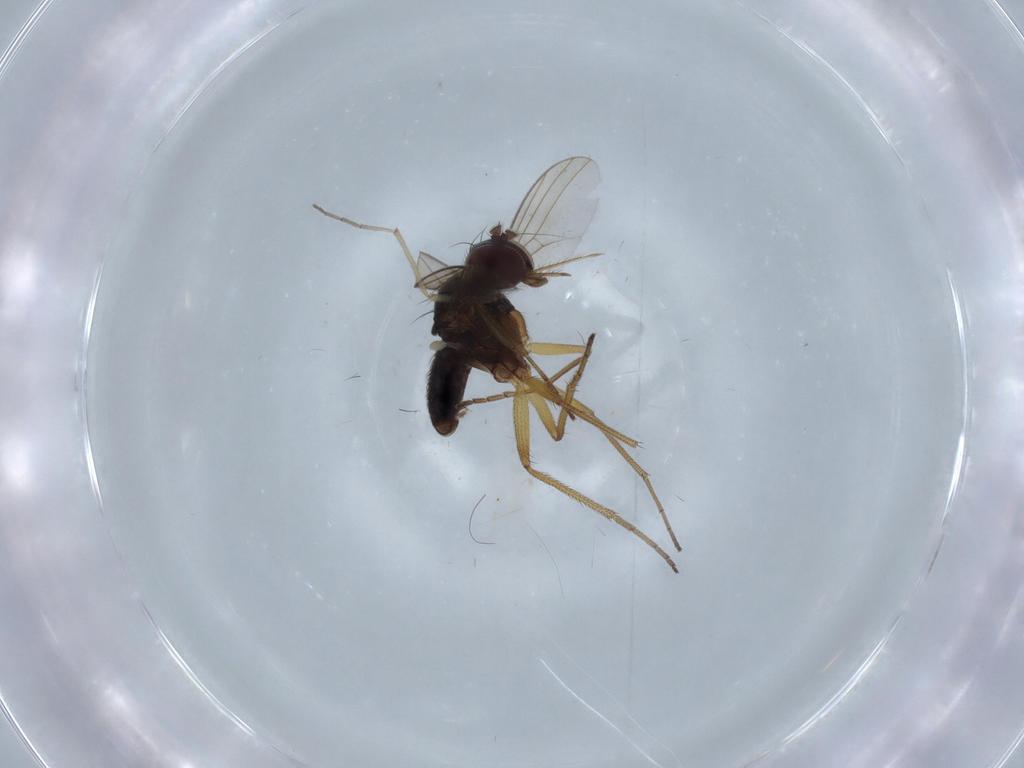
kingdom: Animalia
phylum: Arthropoda
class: Insecta
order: Diptera
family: Dolichopodidae
